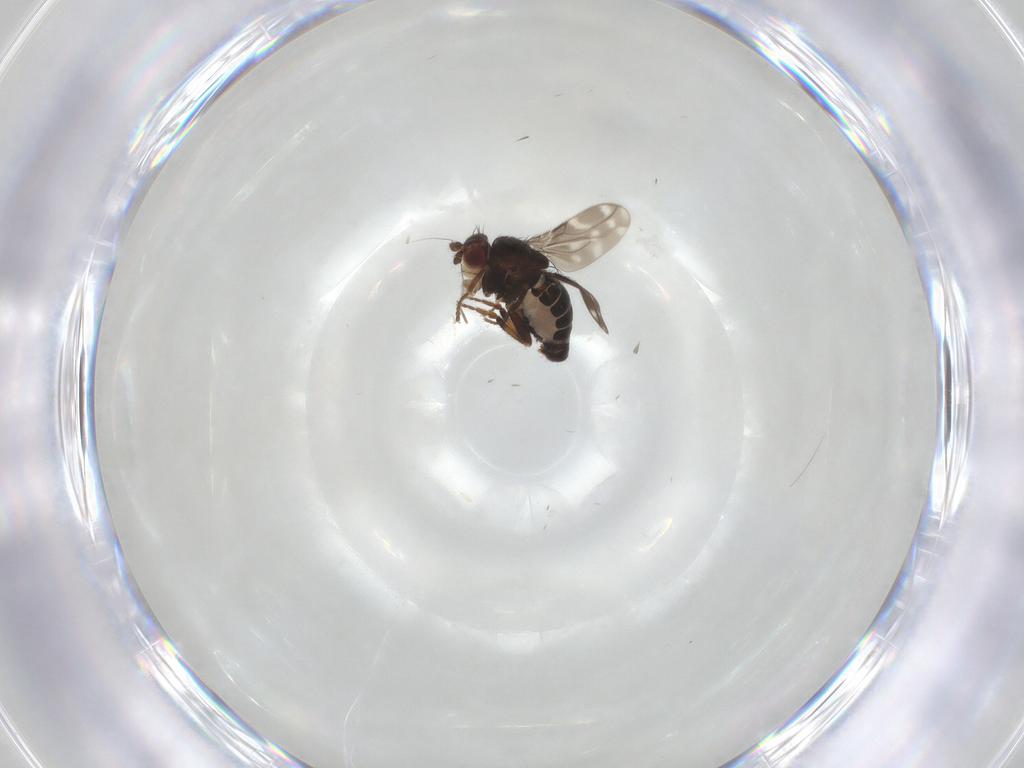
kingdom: Animalia
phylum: Arthropoda
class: Insecta
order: Diptera
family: Sphaeroceridae
